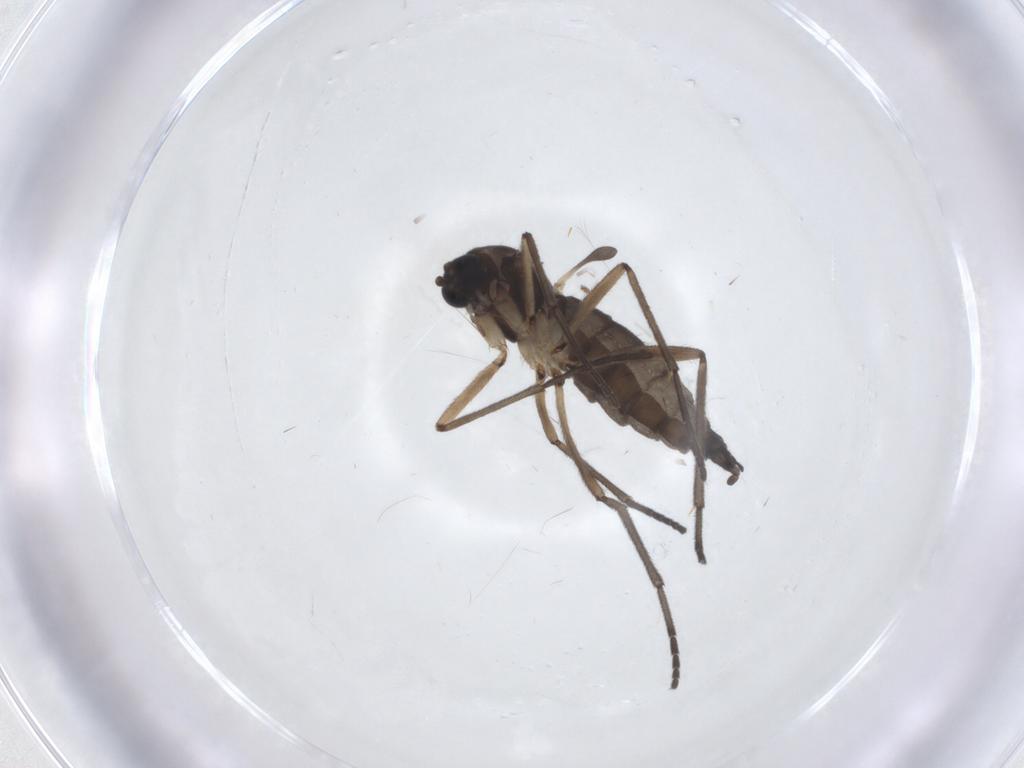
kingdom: Animalia
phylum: Arthropoda
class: Insecta
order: Diptera
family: Sciaridae
